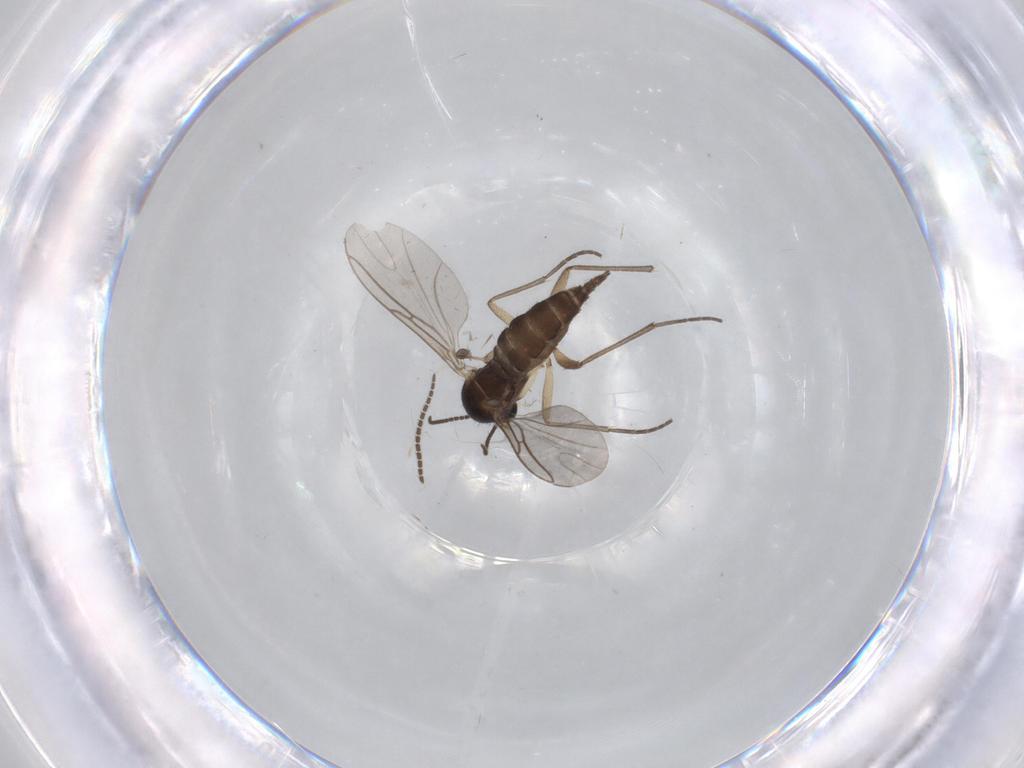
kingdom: Animalia
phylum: Arthropoda
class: Insecta
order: Diptera
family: Sciaridae
